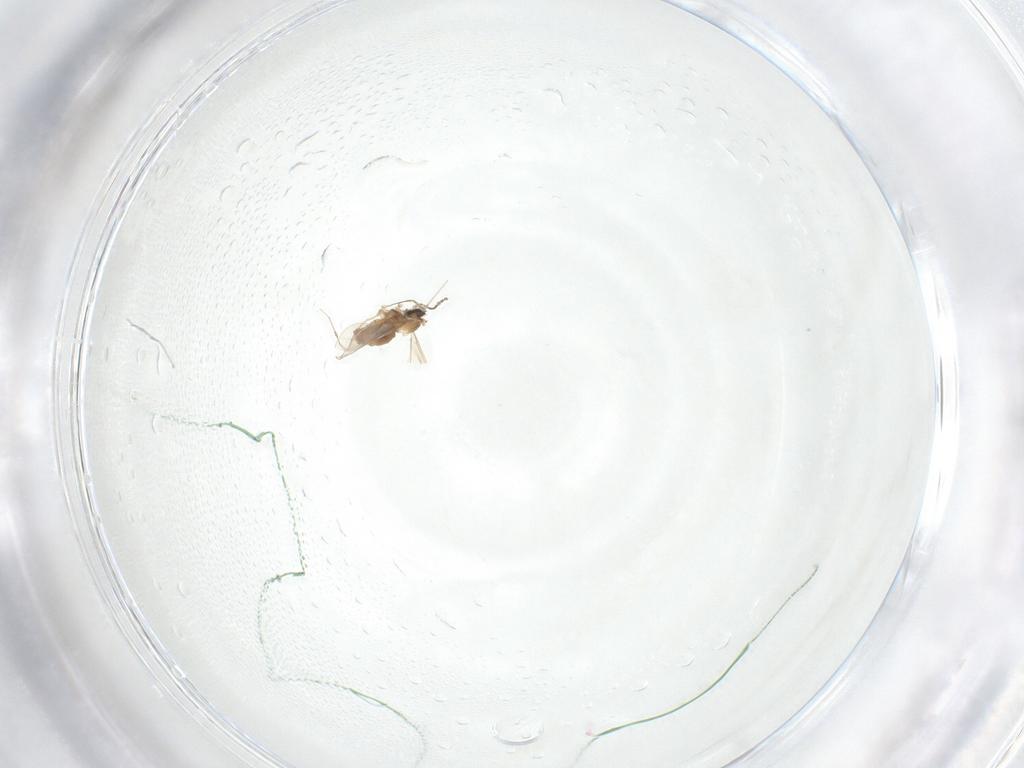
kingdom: Animalia
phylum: Arthropoda
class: Insecta
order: Diptera
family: Cecidomyiidae
